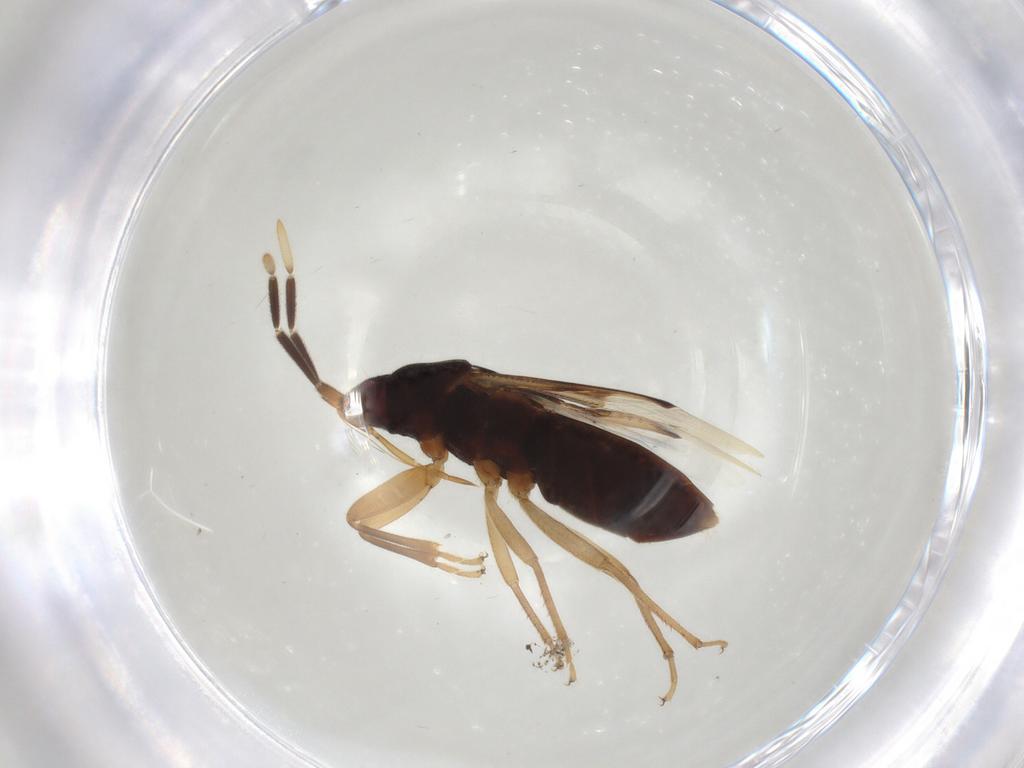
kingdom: Animalia
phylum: Arthropoda
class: Insecta
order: Hemiptera
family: Rhyparochromidae
